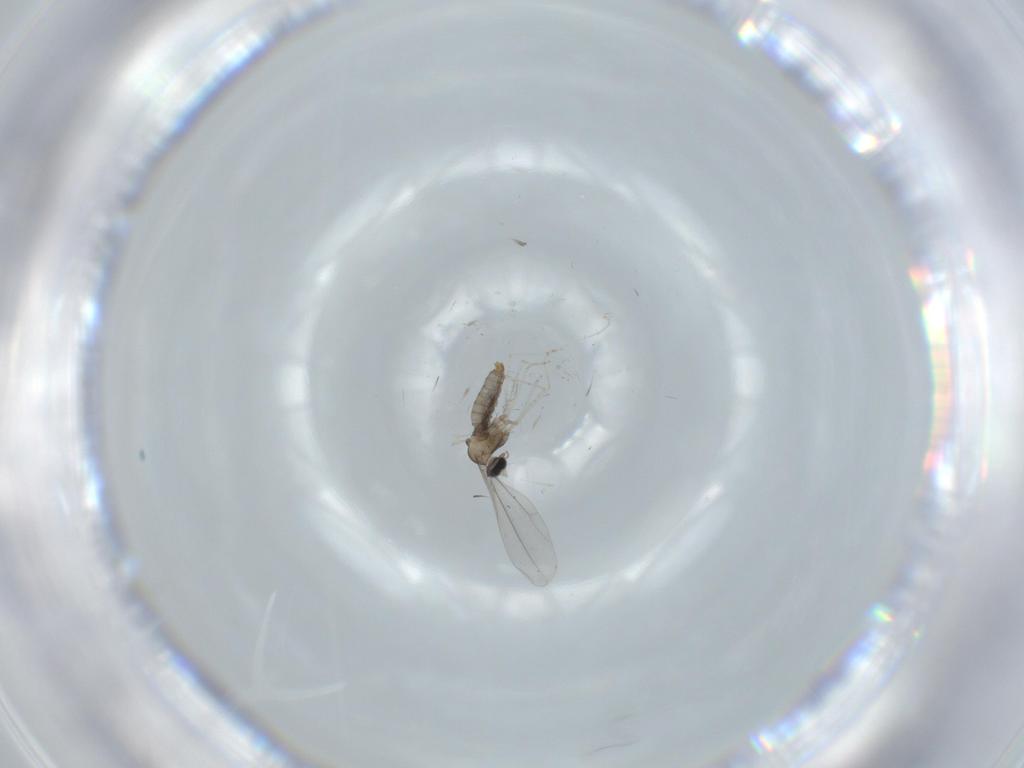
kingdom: Animalia
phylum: Arthropoda
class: Insecta
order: Diptera
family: Cecidomyiidae
